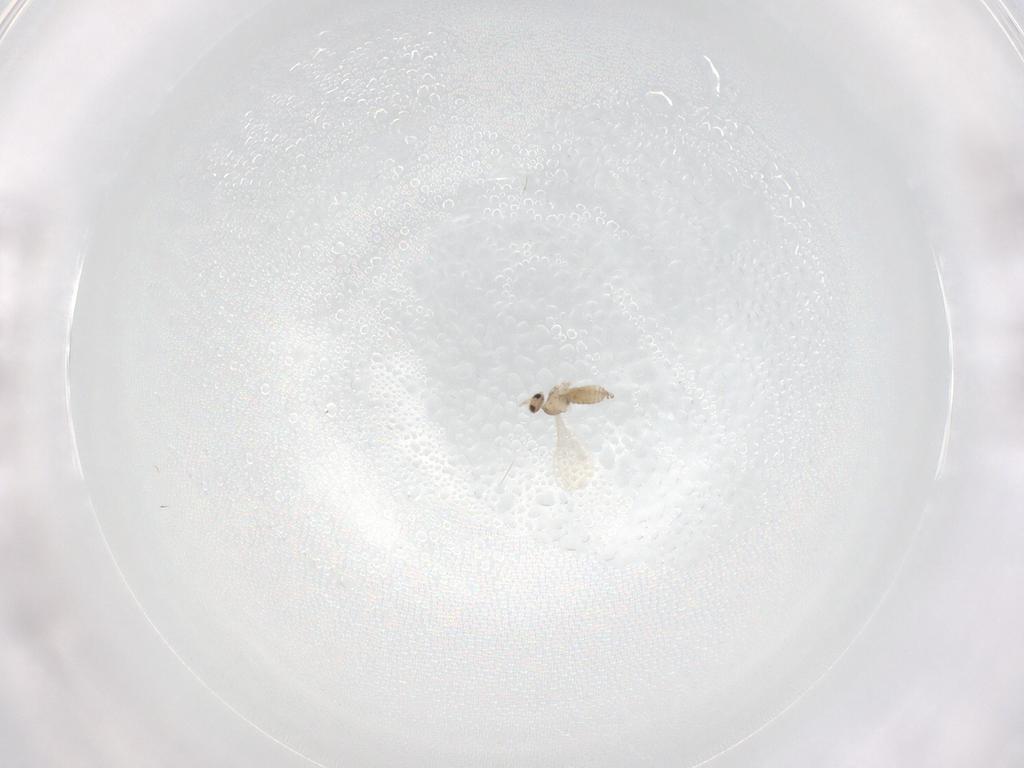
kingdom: Animalia
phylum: Arthropoda
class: Insecta
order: Diptera
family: Cecidomyiidae
